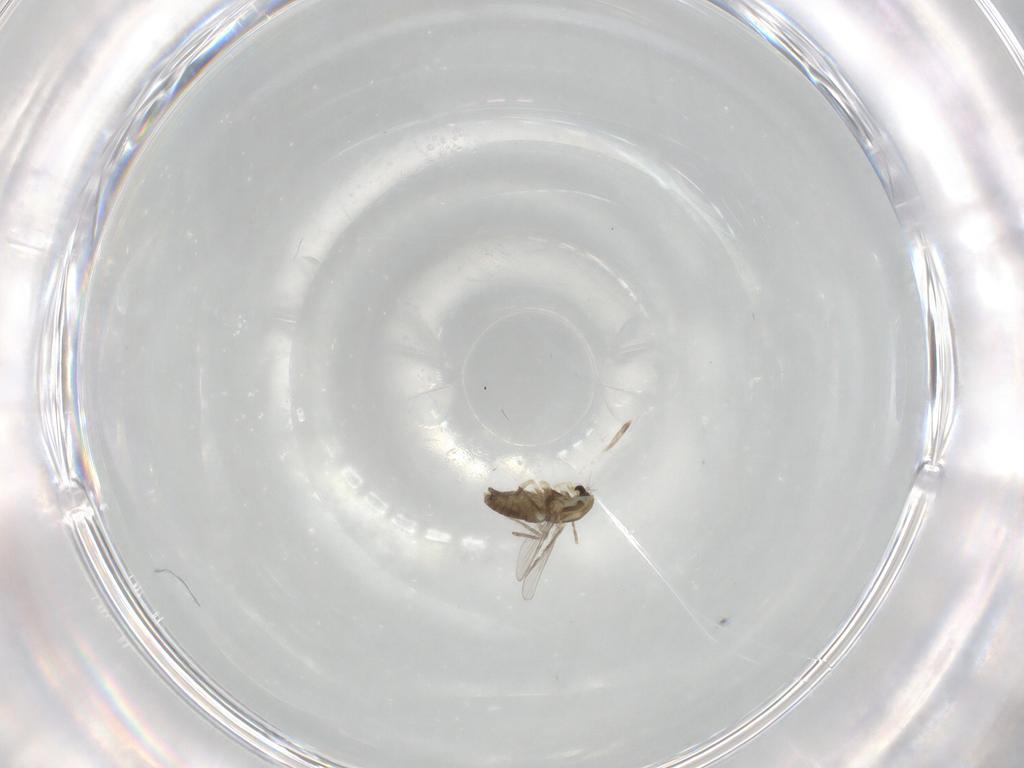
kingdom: Animalia
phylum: Arthropoda
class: Insecta
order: Diptera
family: Chironomidae
